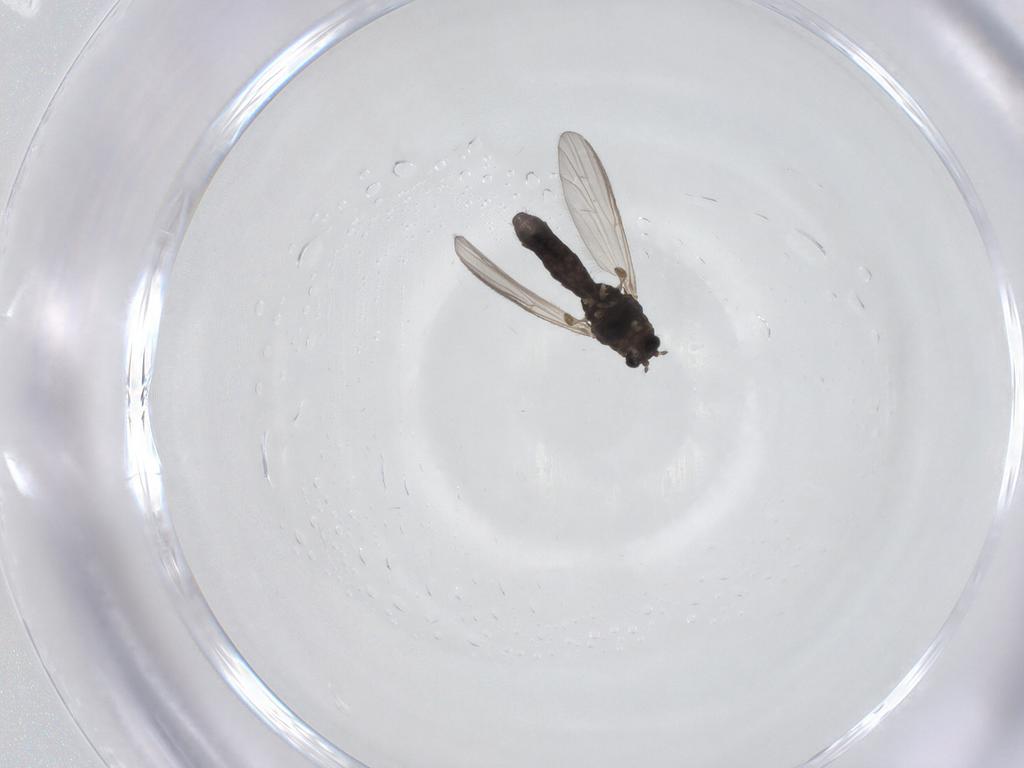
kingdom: Animalia
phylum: Arthropoda
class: Insecta
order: Diptera
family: Chironomidae
